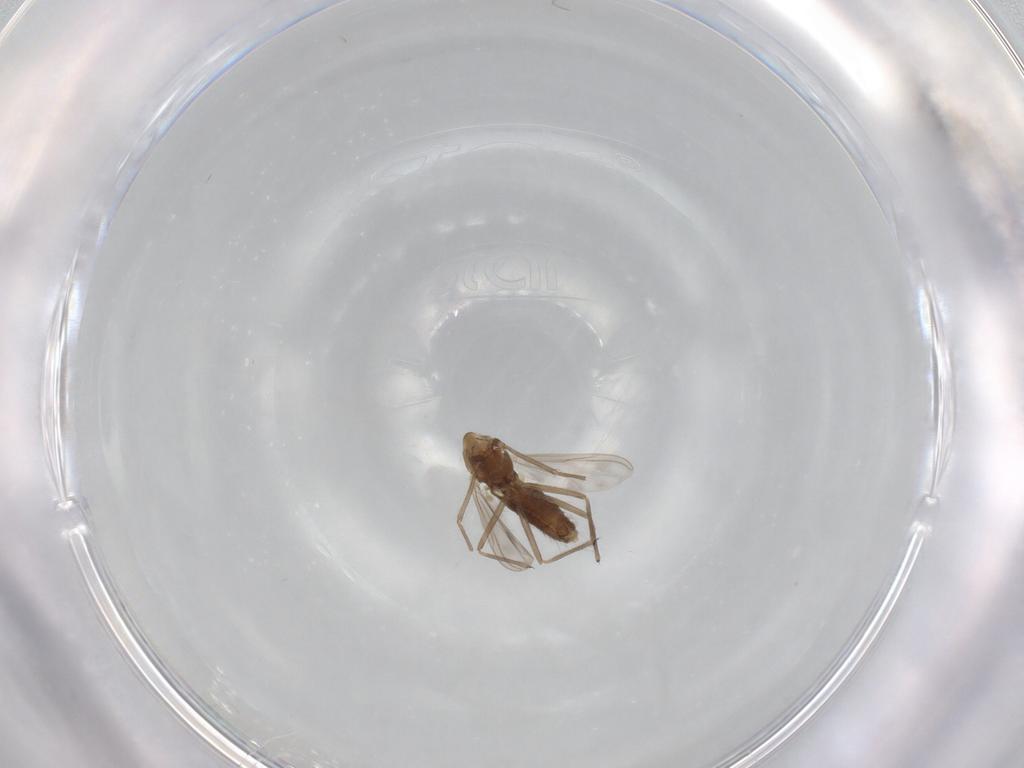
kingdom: Animalia
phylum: Arthropoda
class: Insecta
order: Diptera
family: Chironomidae
